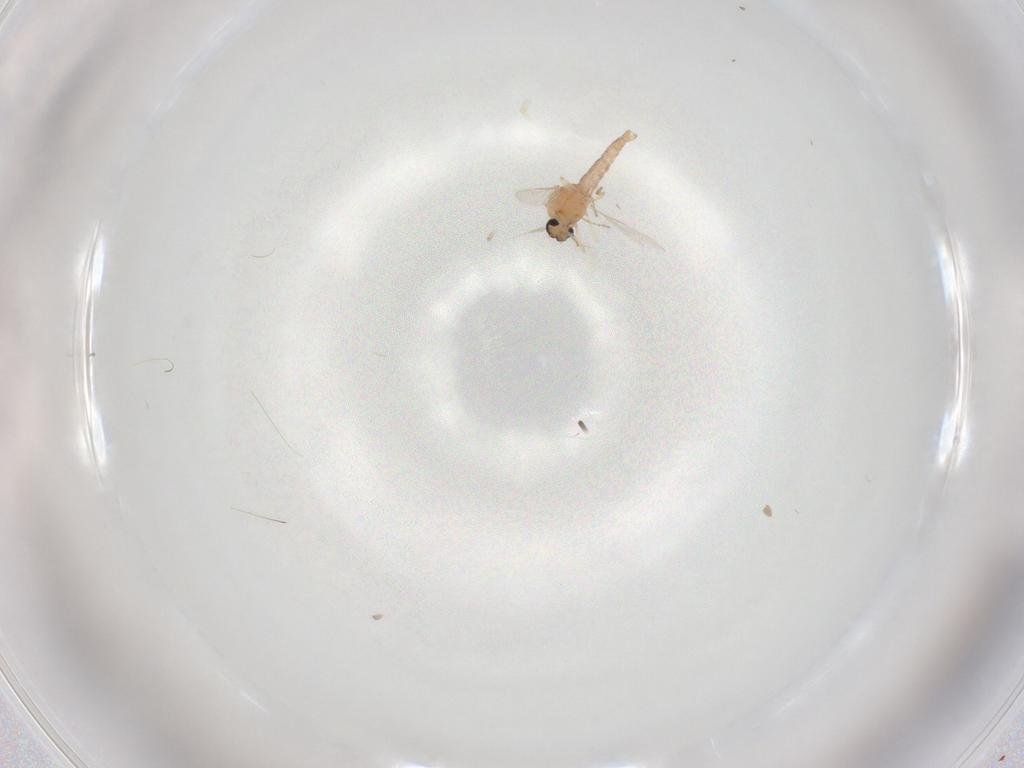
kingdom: Animalia
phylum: Arthropoda
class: Insecta
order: Diptera
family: Ceratopogonidae
